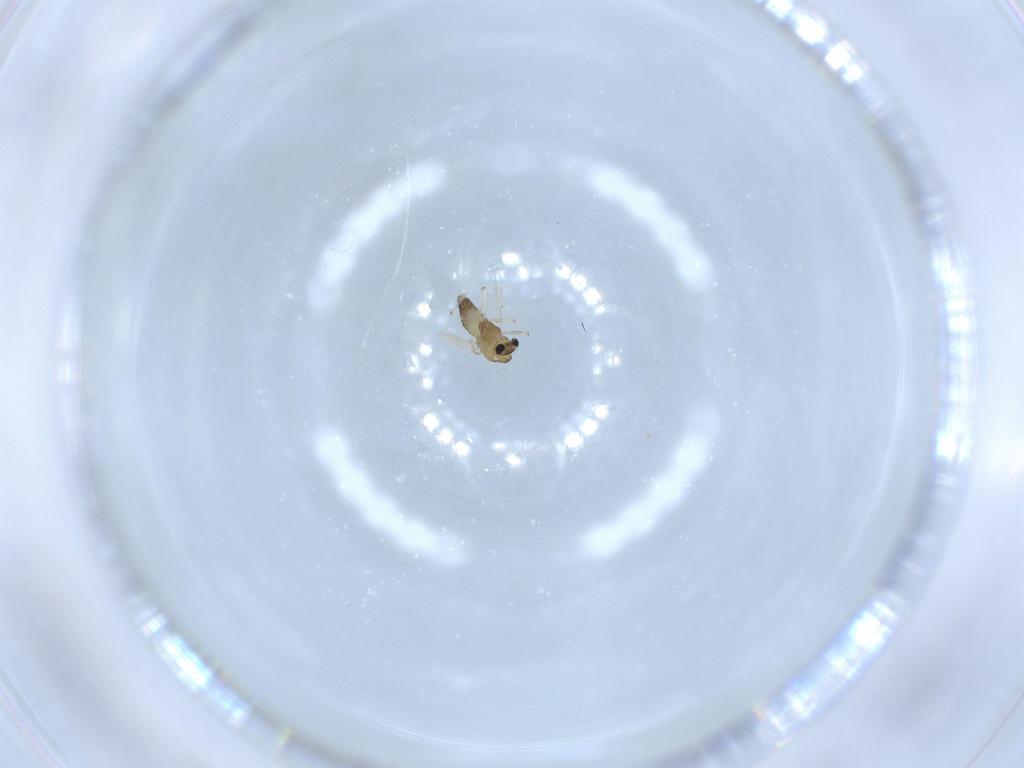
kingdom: Animalia
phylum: Arthropoda
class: Insecta
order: Diptera
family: Chironomidae
